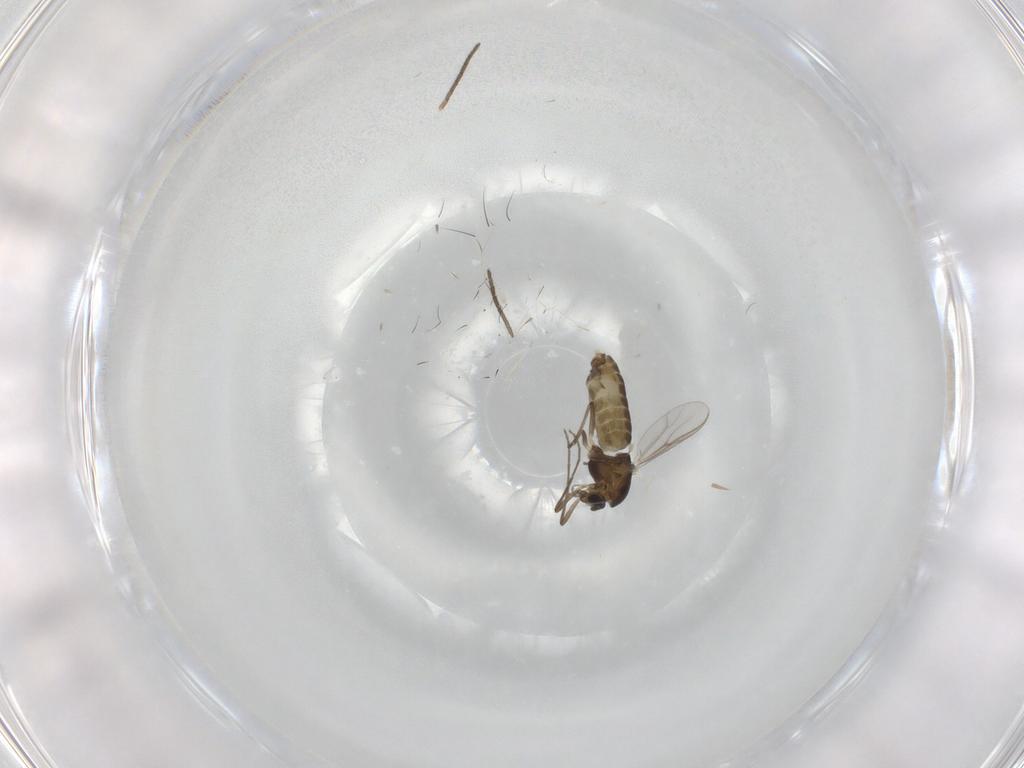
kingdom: Animalia
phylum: Arthropoda
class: Insecta
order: Diptera
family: Chironomidae
